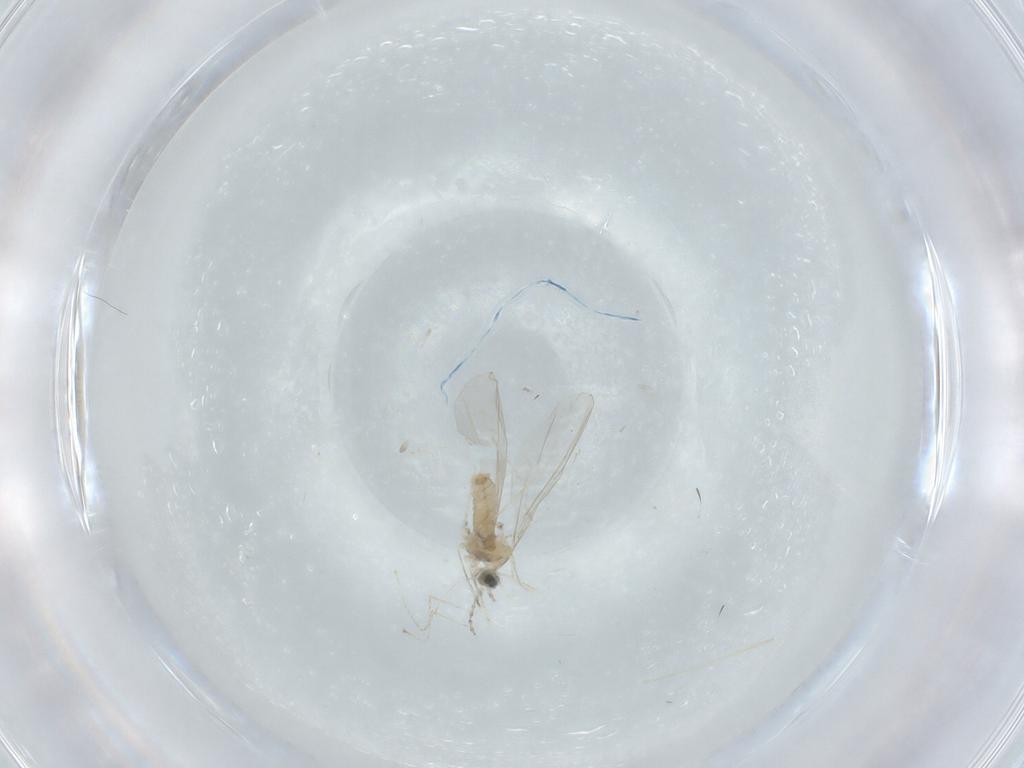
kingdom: Animalia
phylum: Arthropoda
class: Insecta
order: Diptera
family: Cecidomyiidae
